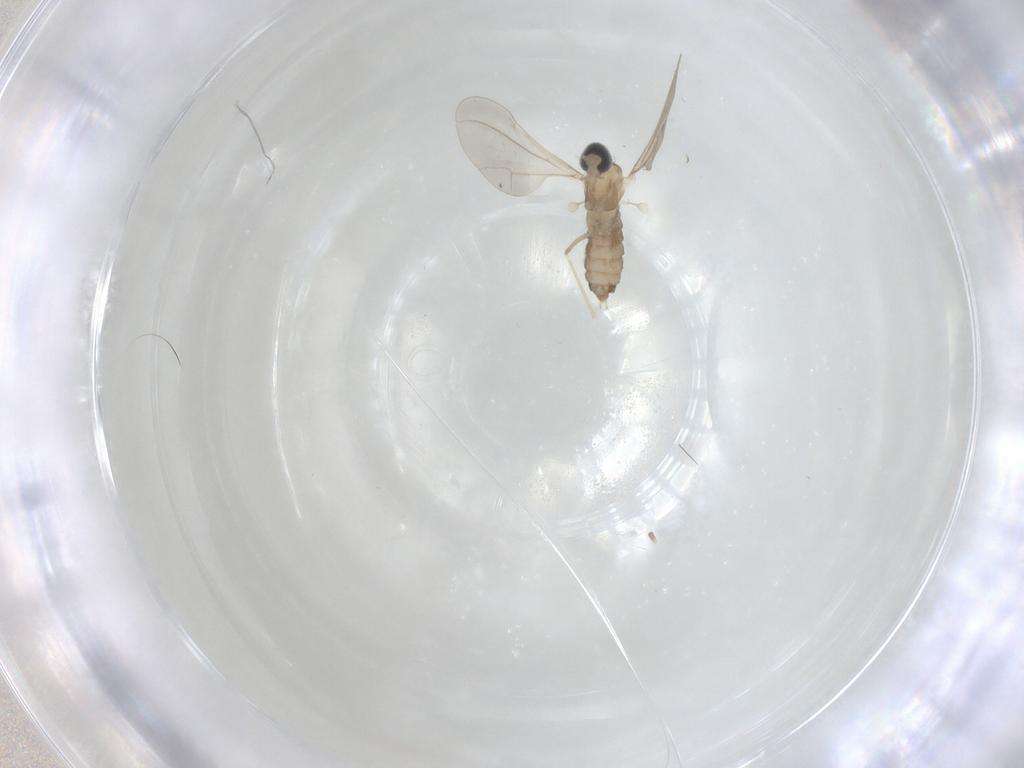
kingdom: Animalia
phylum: Arthropoda
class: Insecta
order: Diptera
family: Cecidomyiidae
